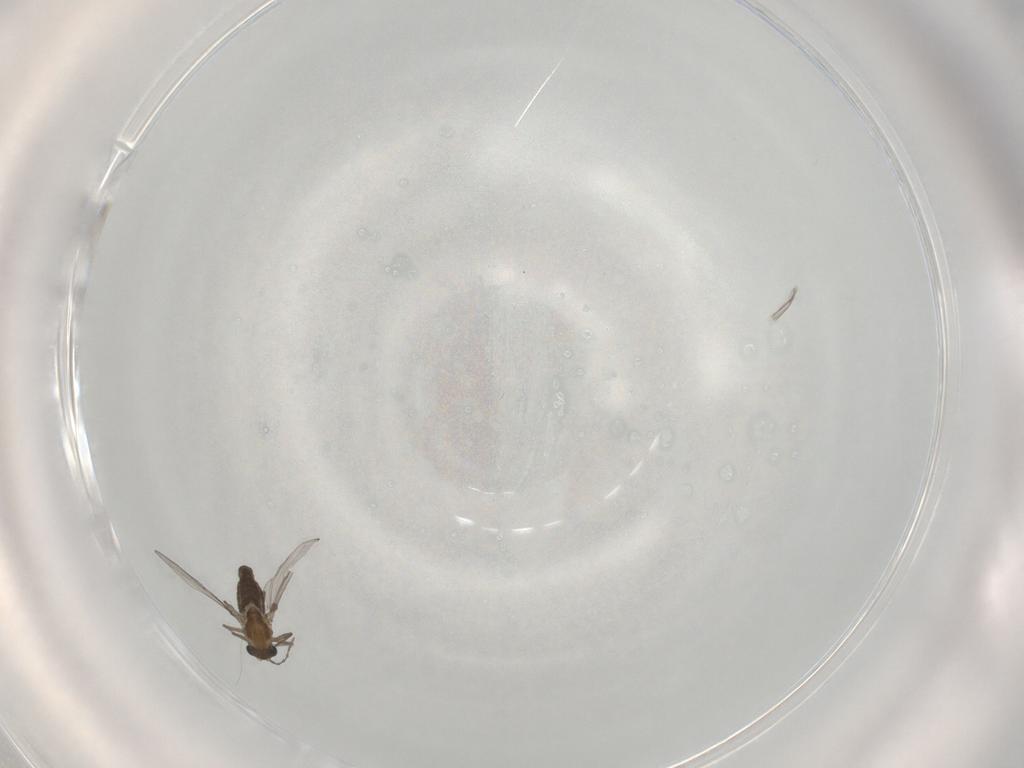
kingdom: Animalia
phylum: Arthropoda
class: Insecta
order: Diptera
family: Chironomidae
